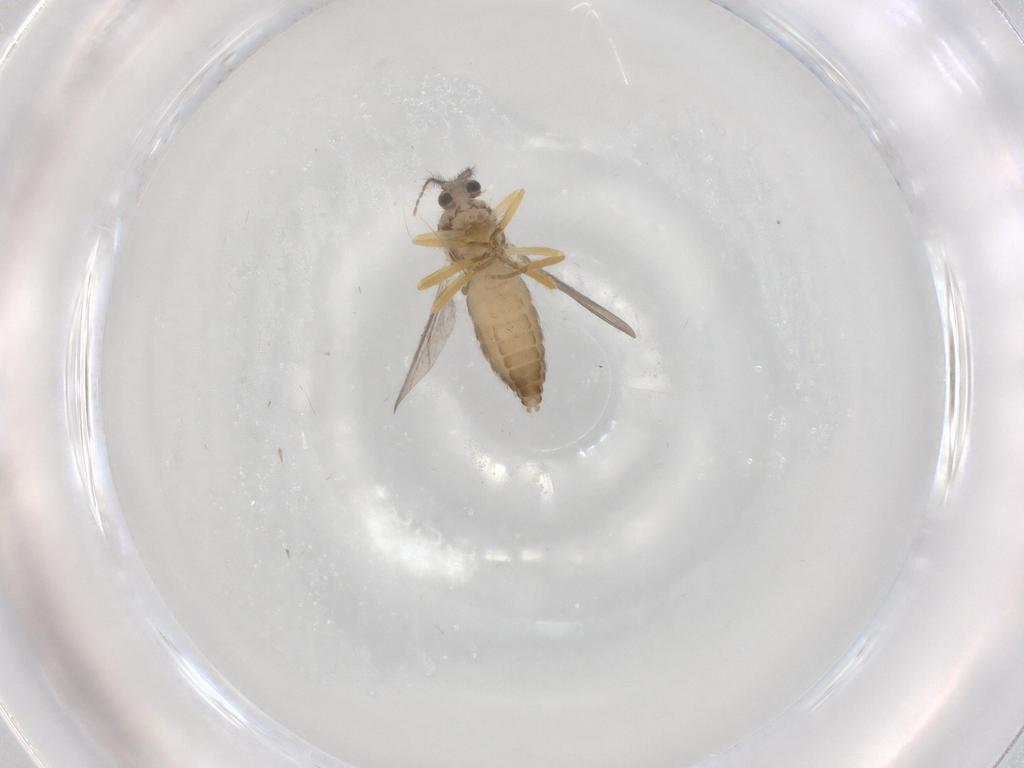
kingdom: Animalia
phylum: Arthropoda
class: Insecta
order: Diptera
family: Ceratopogonidae
